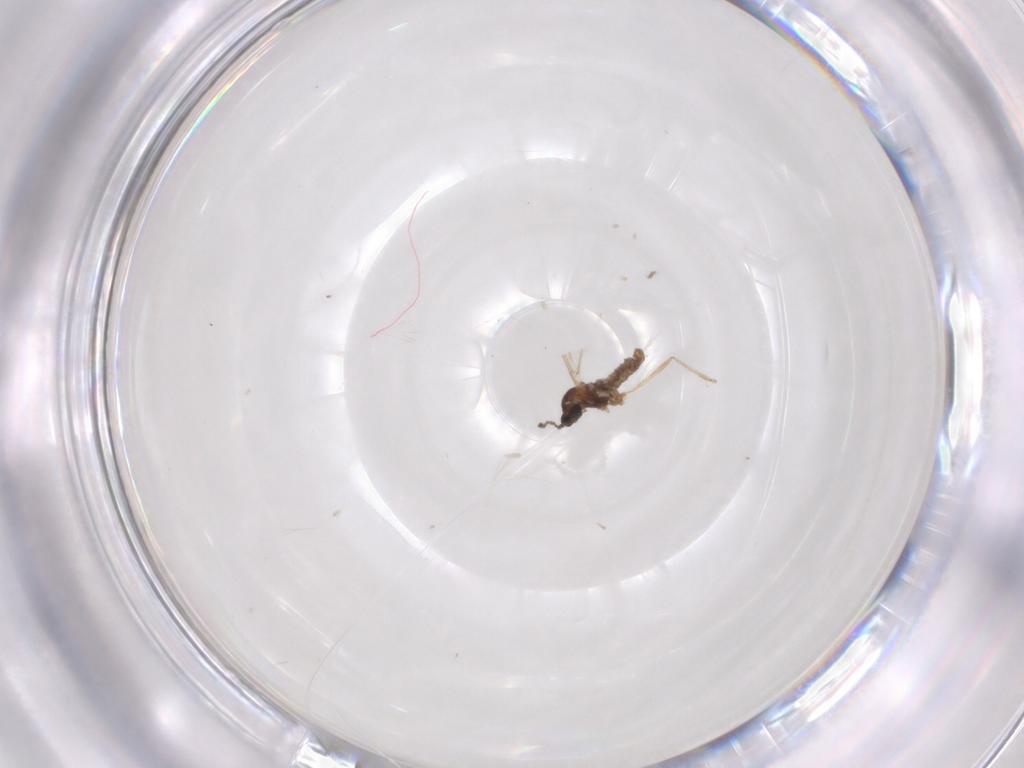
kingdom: Animalia
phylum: Arthropoda
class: Insecta
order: Diptera
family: Cecidomyiidae
